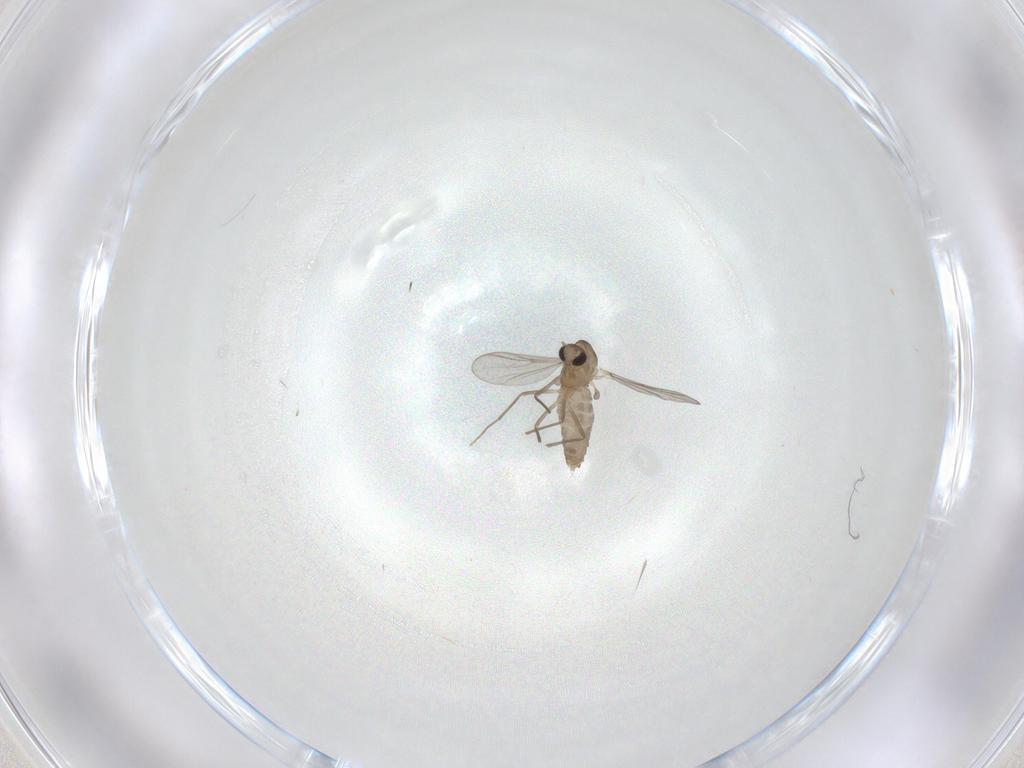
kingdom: Animalia
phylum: Arthropoda
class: Insecta
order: Diptera
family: Chironomidae
